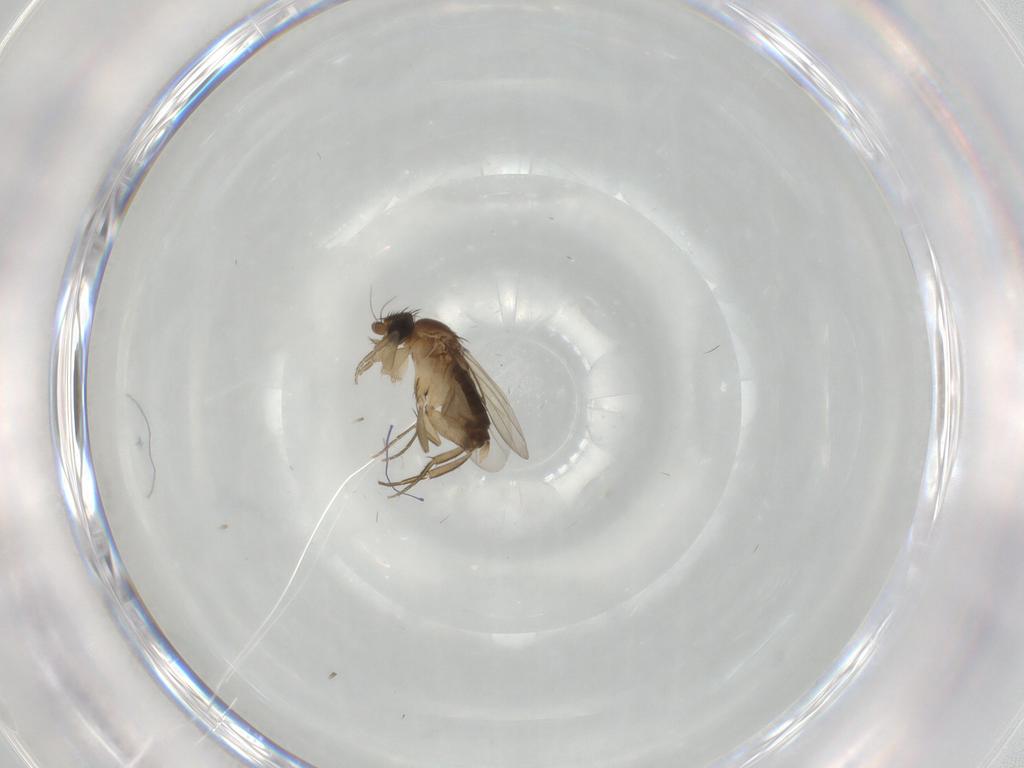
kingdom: Animalia
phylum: Arthropoda
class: Insecta
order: Diptera
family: Phoridae
